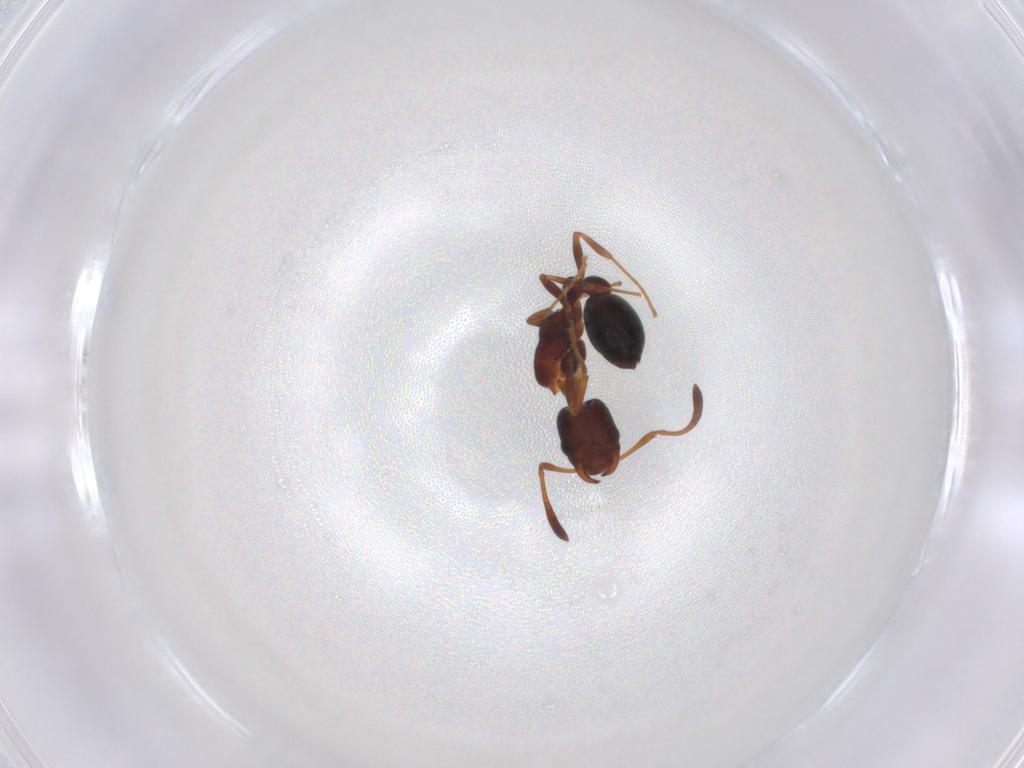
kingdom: Animalia
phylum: Arthropoda
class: Insecta
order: Hymenoptera
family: Formicidae
